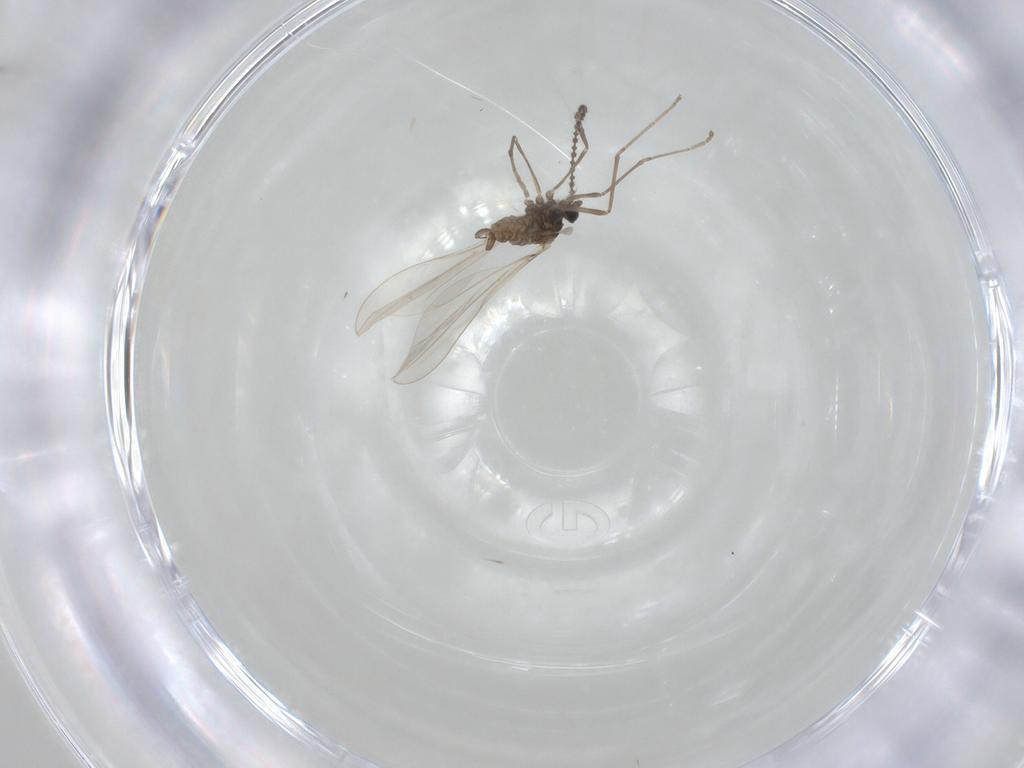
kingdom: Animalia
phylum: Arthropoda
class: Insecta
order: Diptera
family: Cecidomyiidae
